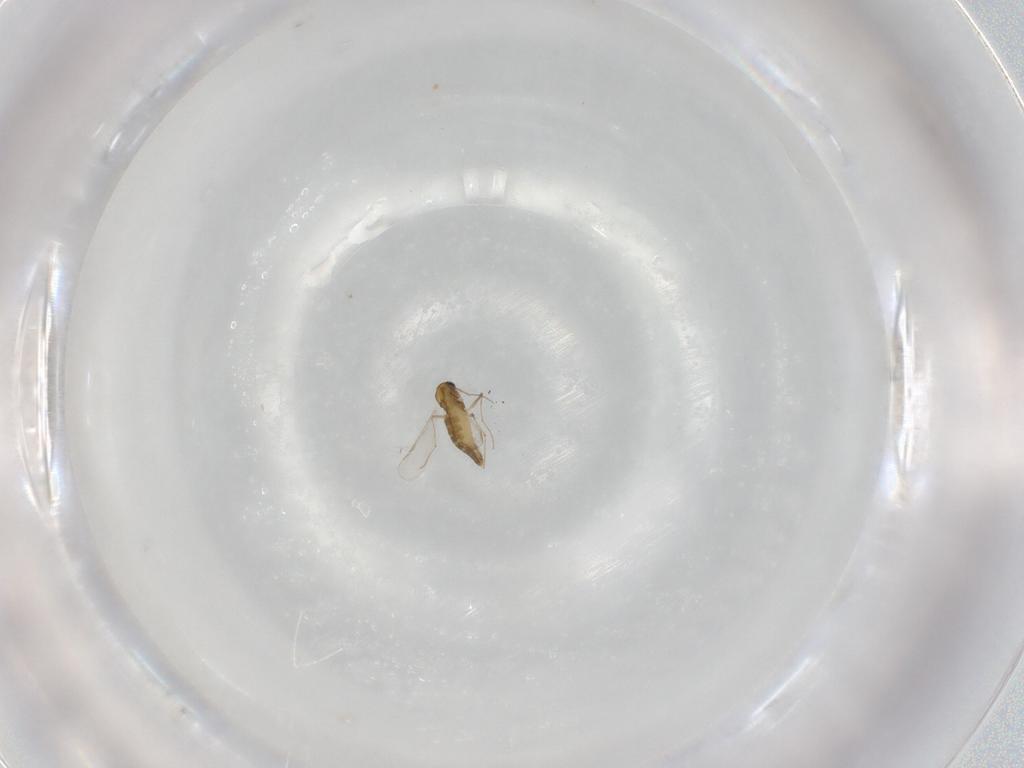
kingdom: Animalia
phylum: Arthropoda
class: Insecta
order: Diptera
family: Chironomidae
